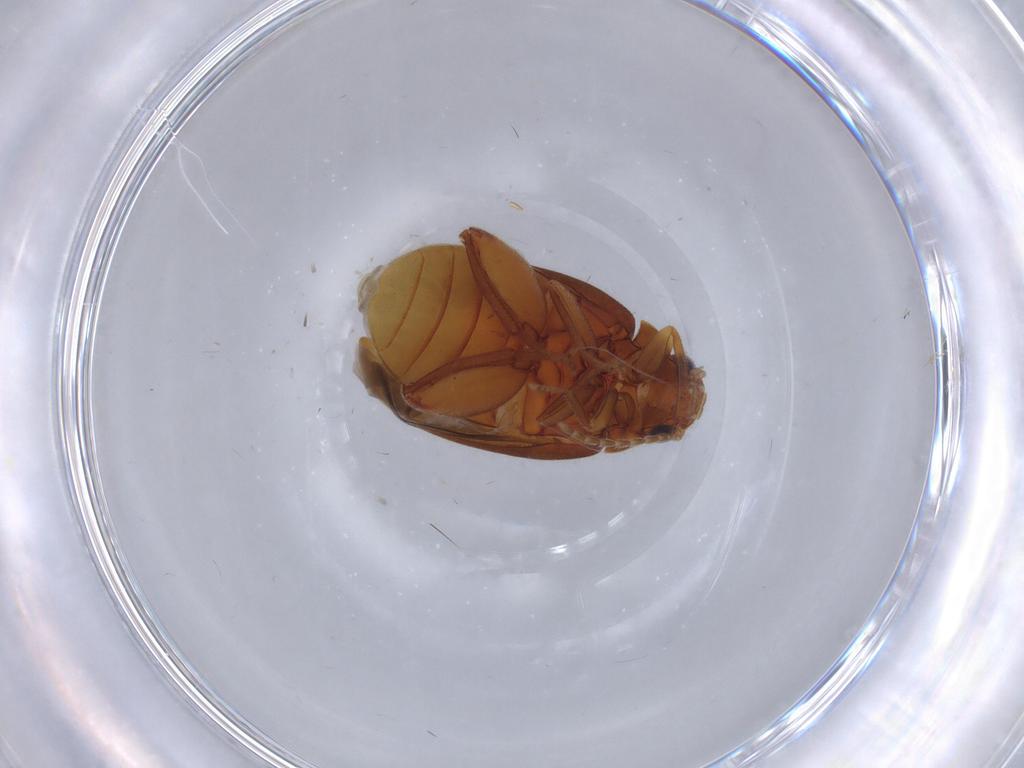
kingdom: Animalia
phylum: Arthropoda
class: Insecta
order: Coleoptera
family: Scirtidae
